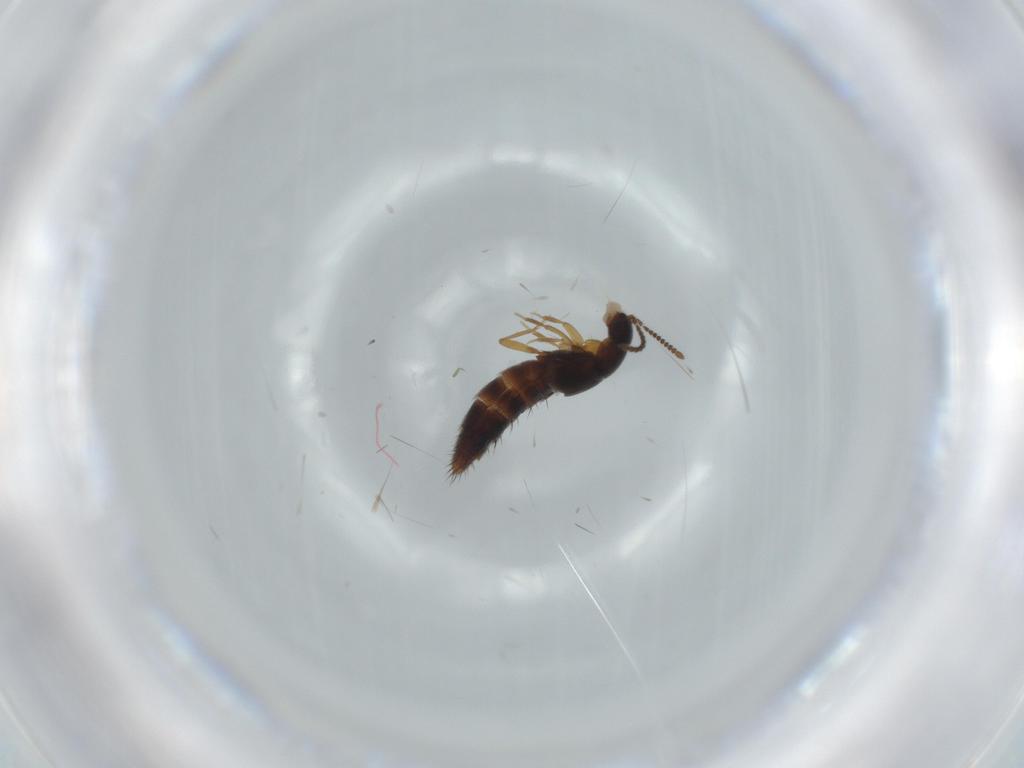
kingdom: Animalia
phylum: Arthropoda
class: Insecta
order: Coleoptera
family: Staphylinidae
